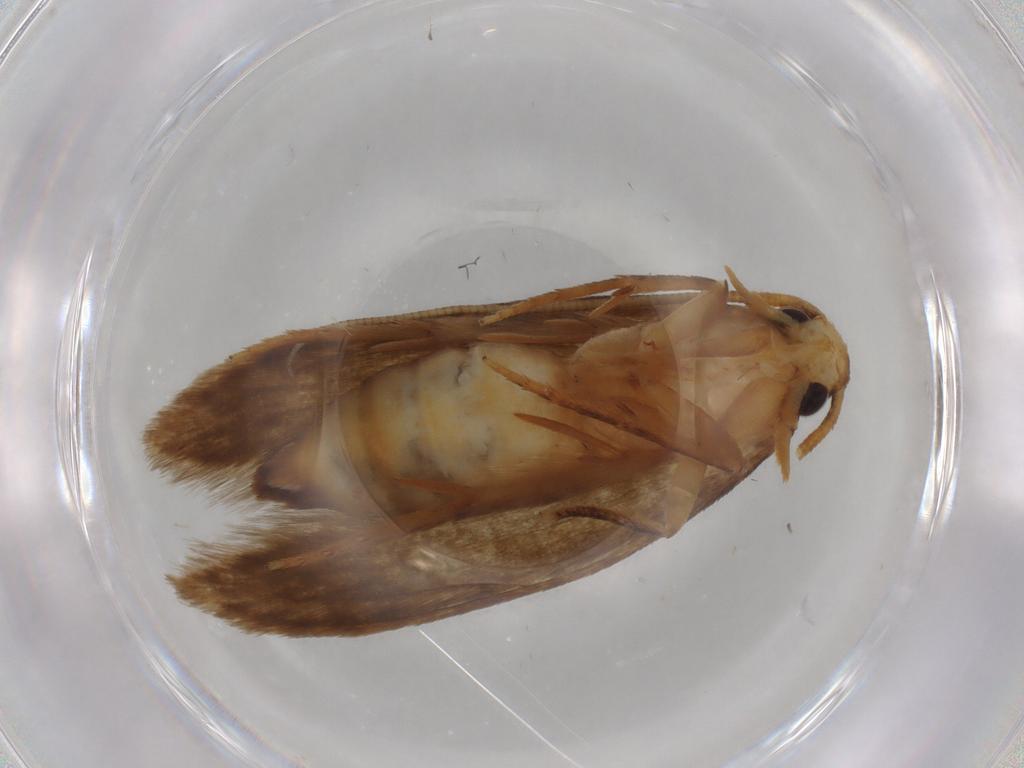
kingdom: Animalia
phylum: Arthropoda
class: Insecta
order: Lepidoptera
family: Tineidae
